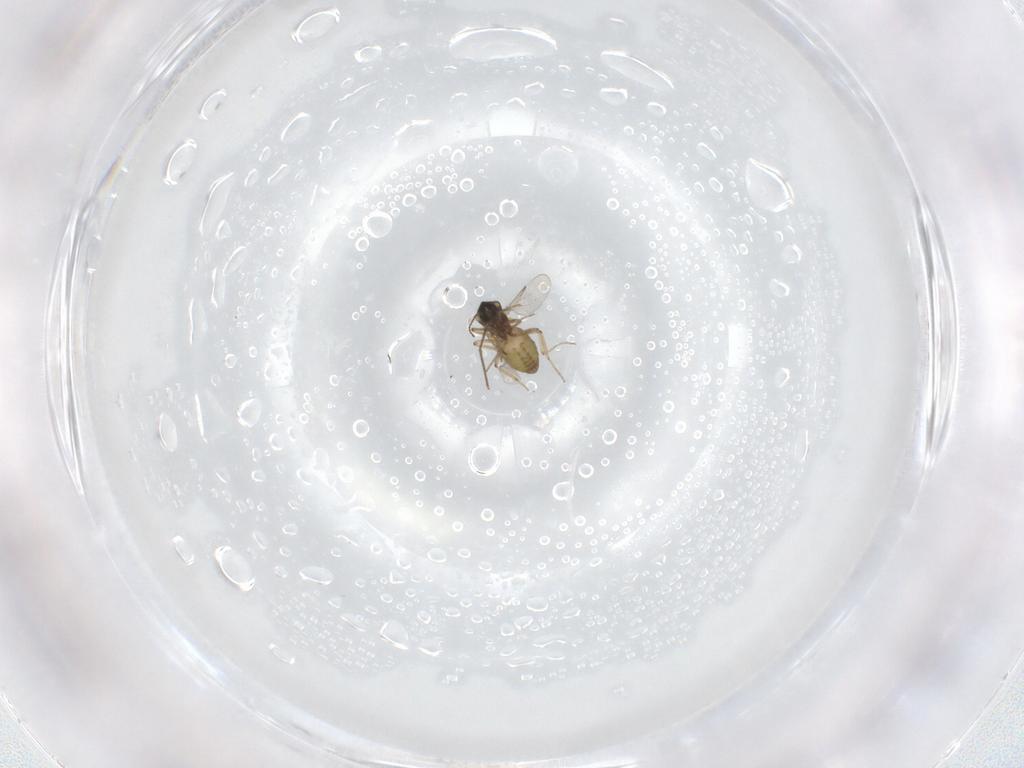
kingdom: Animalia
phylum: Arthropoda
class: Insecta
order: Diptera
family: Ceratopogonidae
